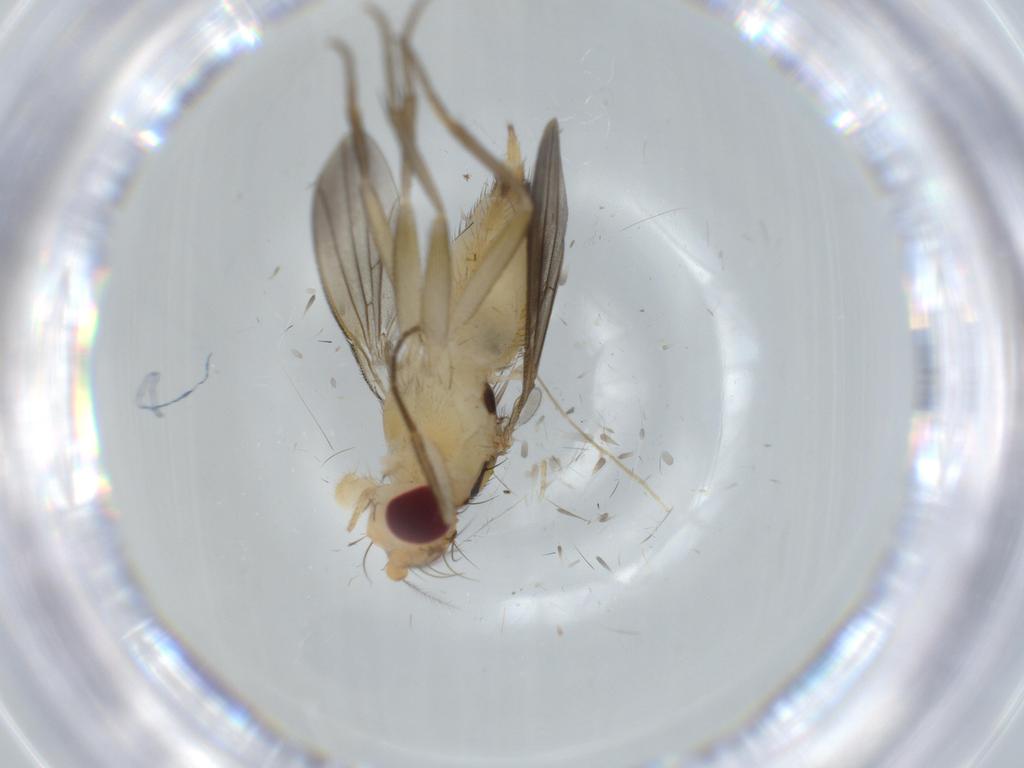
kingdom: Animalia
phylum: Arthropoda
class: Insecta
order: Diptera
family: Clusiidae
